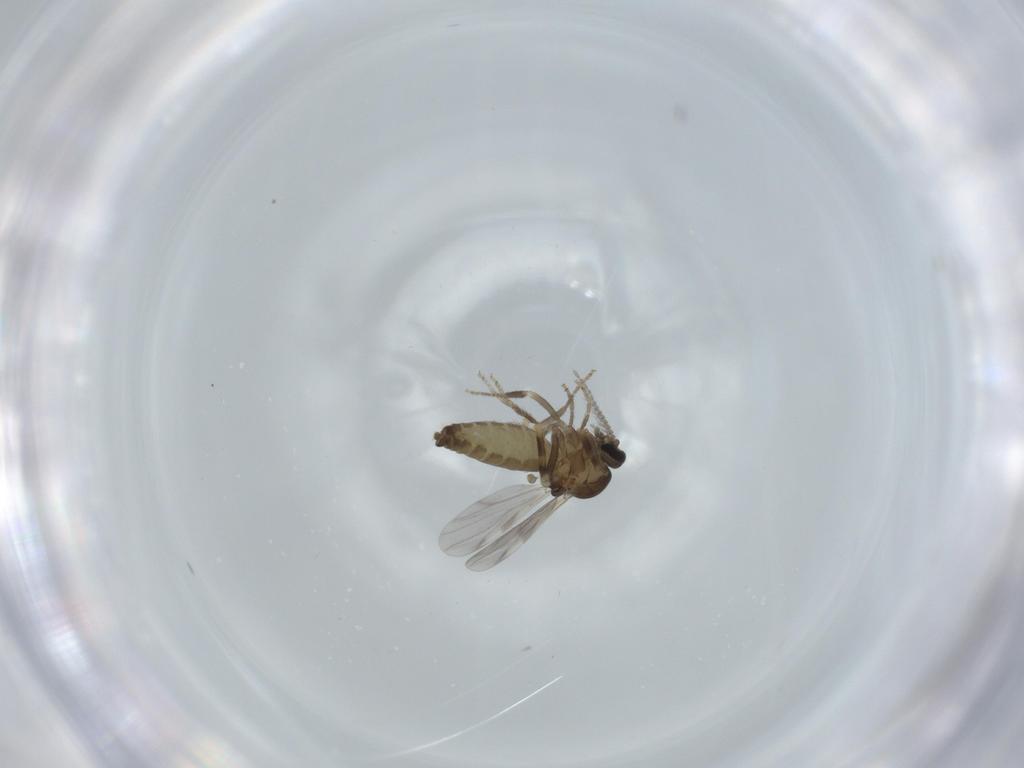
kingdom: Animalia
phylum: Arthropoda
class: Insecta
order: Diptera
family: Ceratopogonidae
